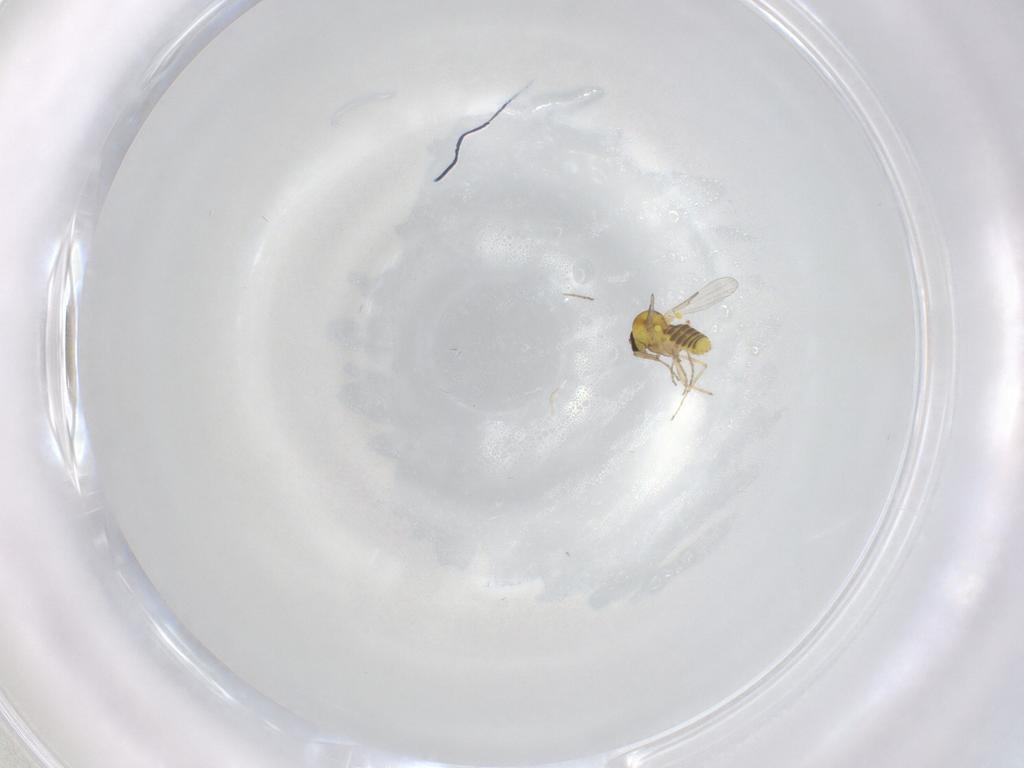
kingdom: Animalia
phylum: Arthropoda
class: Insecta
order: Diptera
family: Ceratopogonidae
